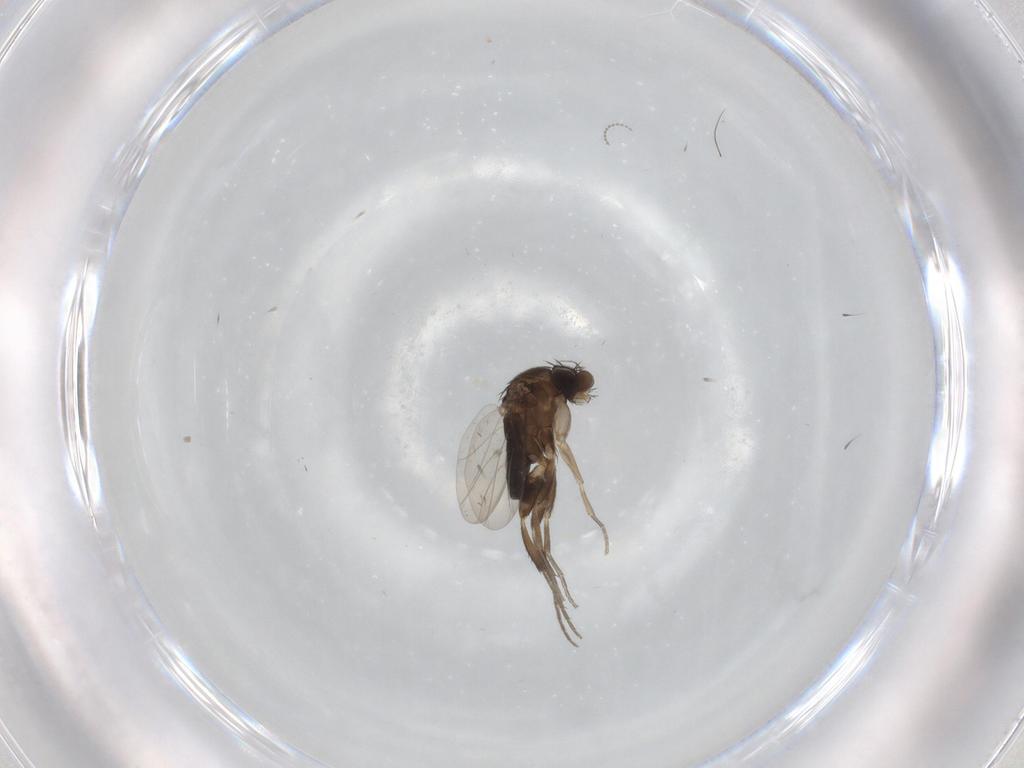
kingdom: Animalia
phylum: Arthropoda
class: Insecta
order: Diptera
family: Phoridae
